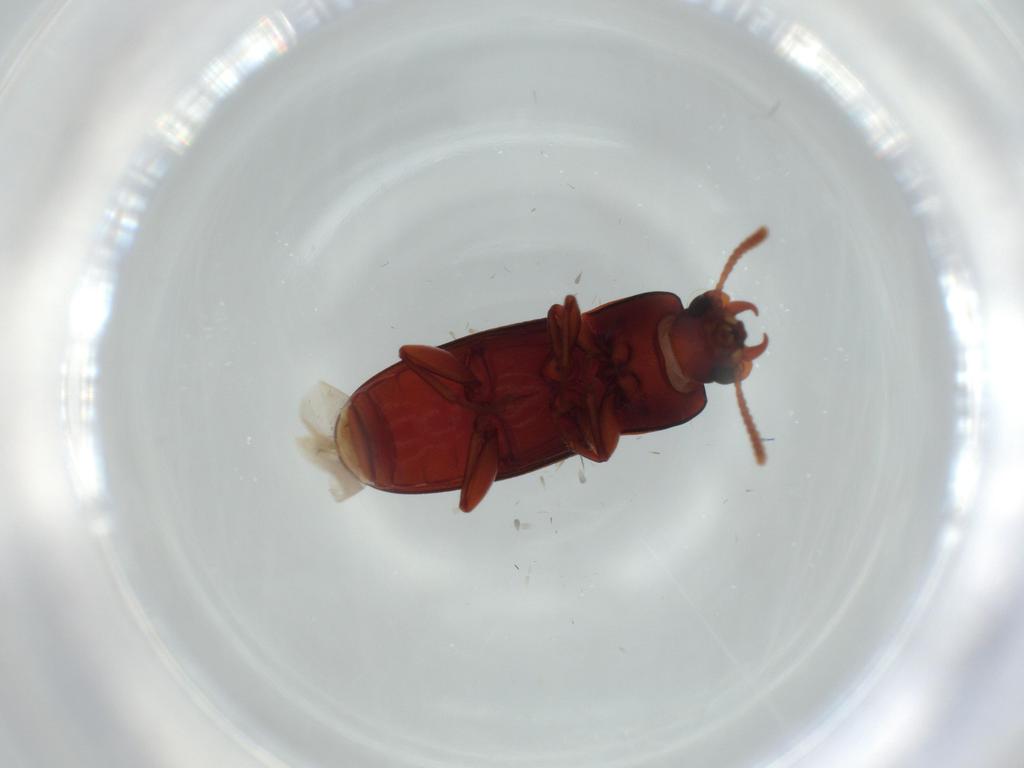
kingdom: Animalia
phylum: Arthropoda
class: Insecta
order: Coleoptera
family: Tenebrionidae
